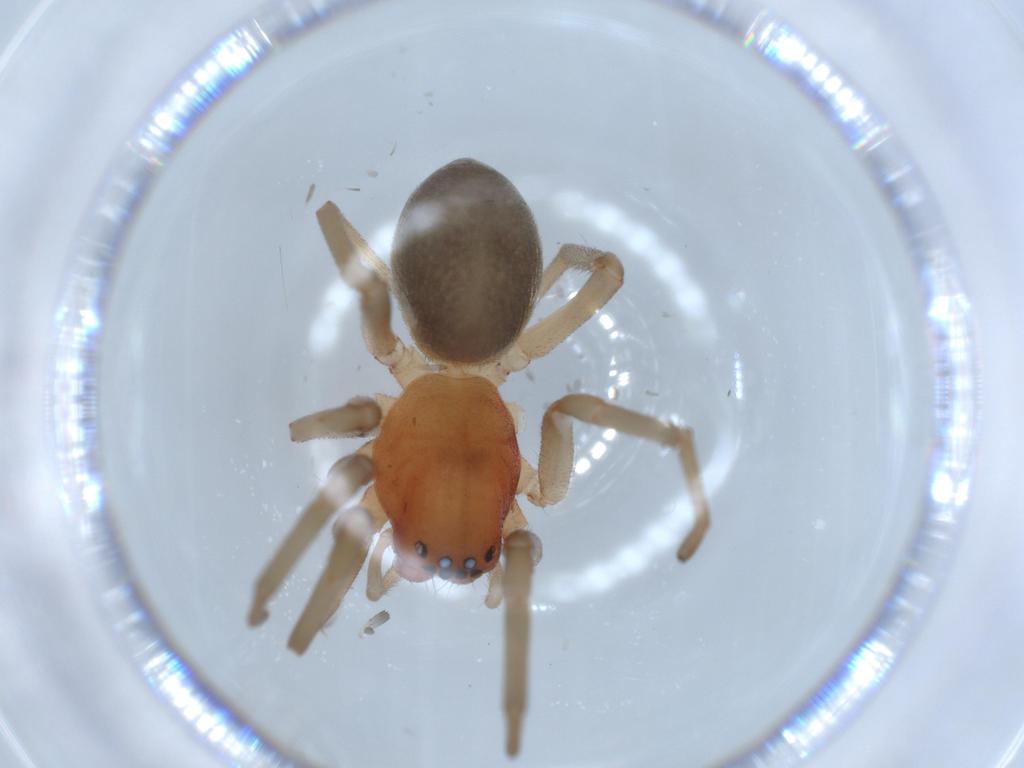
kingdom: Animalia
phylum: Arthropoda
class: Arachnida
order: Araneae
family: Trachelidae
